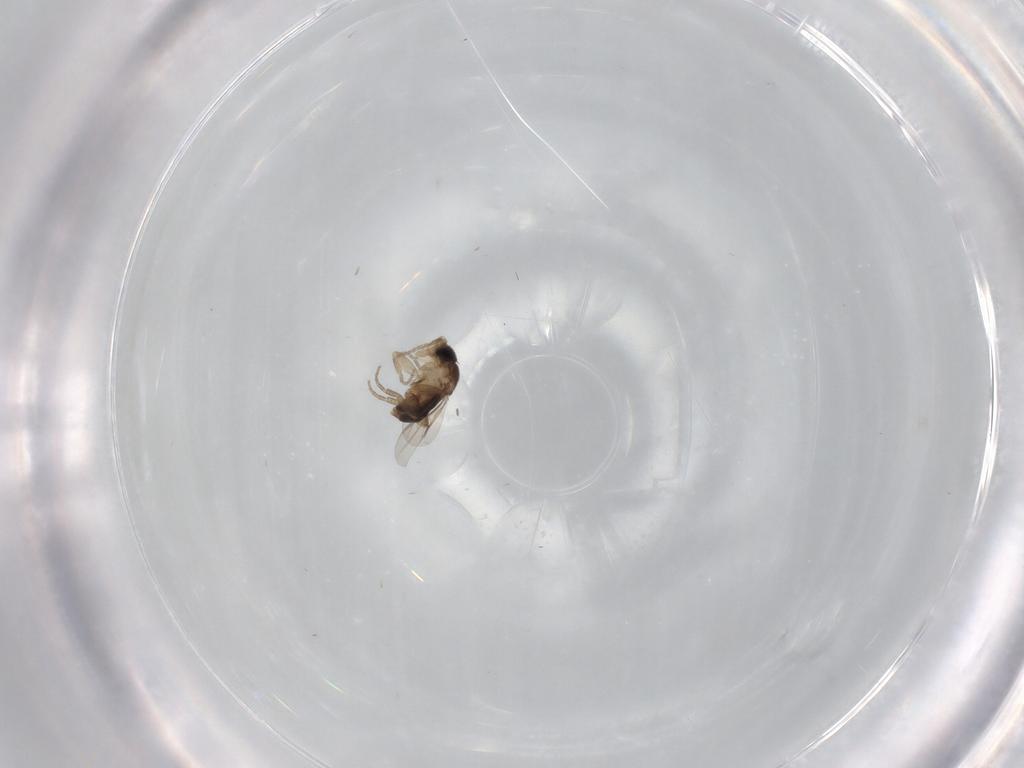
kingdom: Animalia
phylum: Arthropoda
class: Insecta
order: Diptera
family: Phoridae
